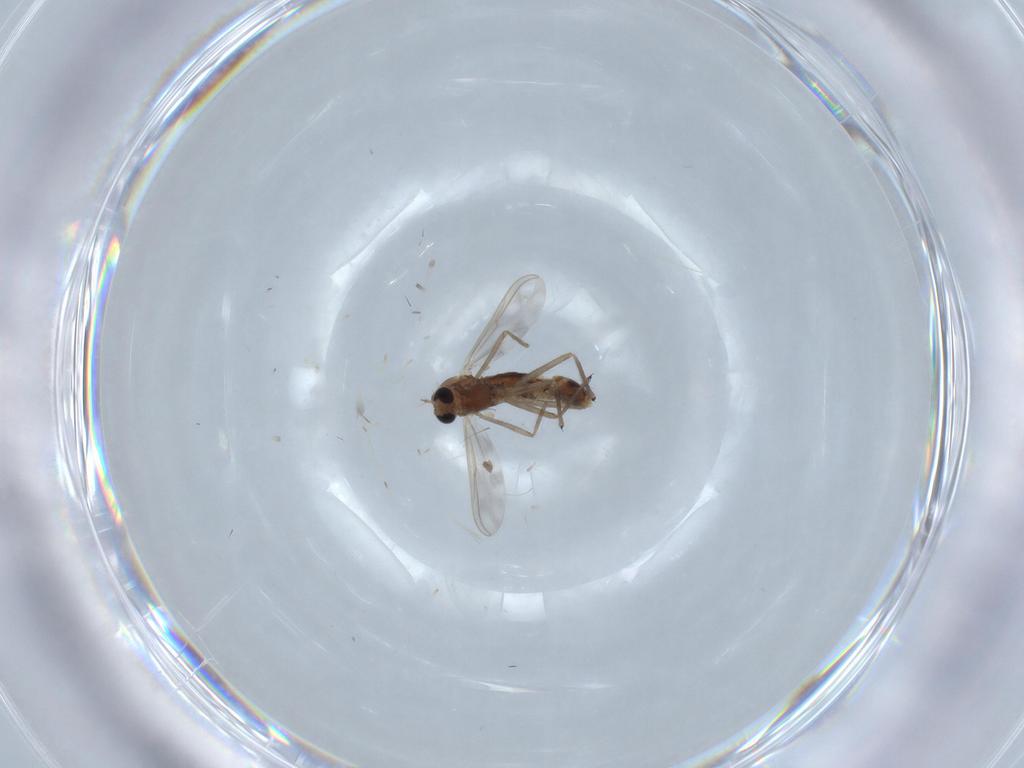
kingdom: Animalia
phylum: Arthropoda
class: Insecta
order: Diptera
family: Chironomidae
